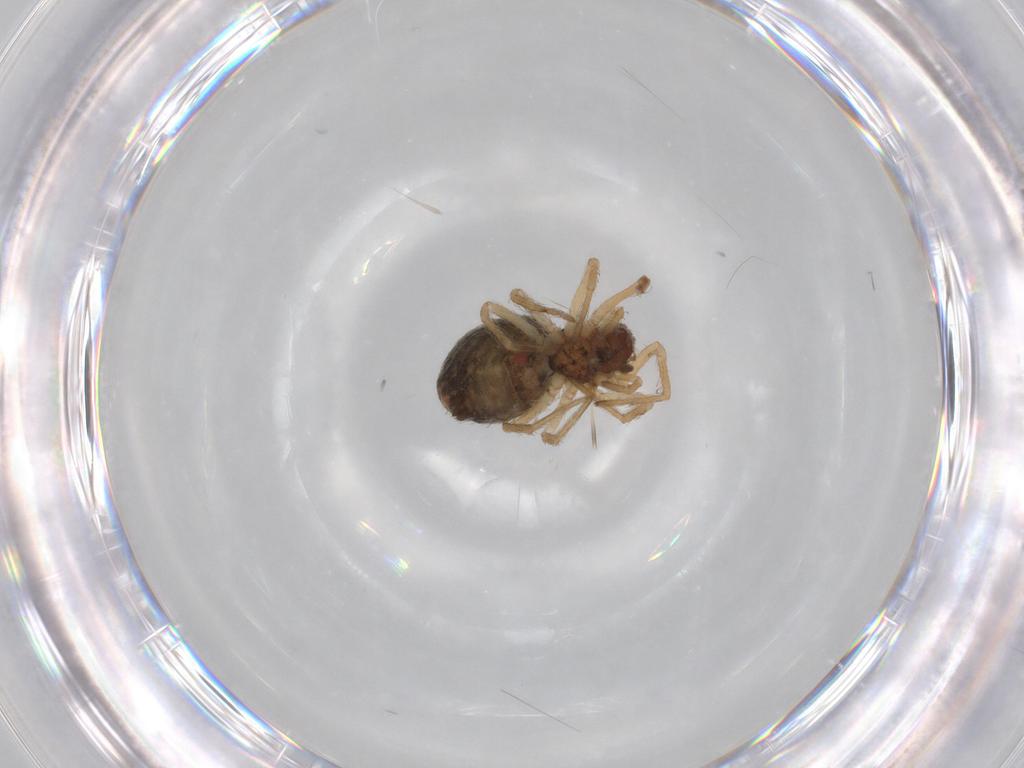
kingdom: Animalia
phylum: Arthropoda
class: Arachnida
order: Araneae
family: Dictynidae
